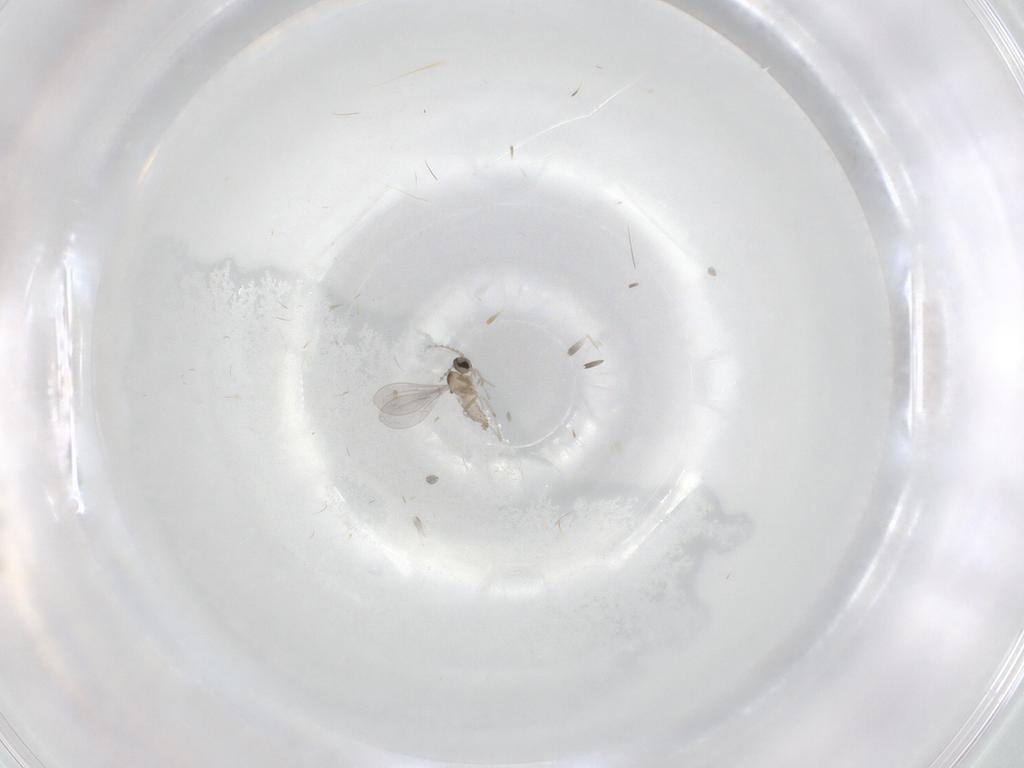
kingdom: Animalia
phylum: Arthropoda
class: Insecta
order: Diptera
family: Cecidomyiidae
